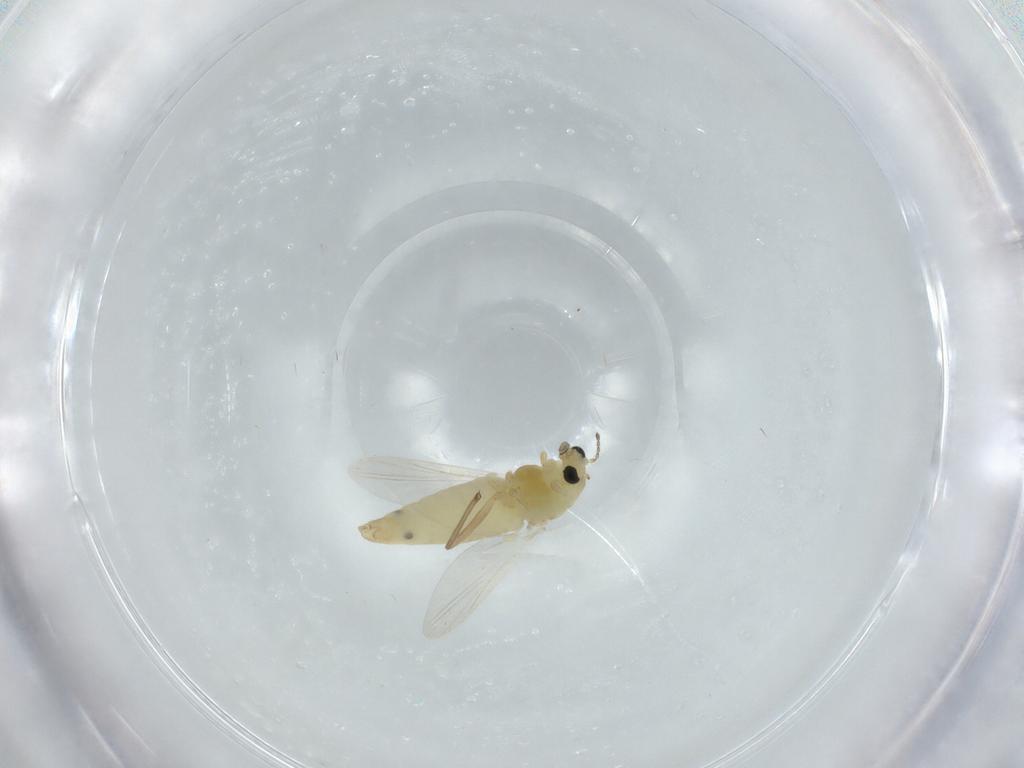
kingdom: Animalia
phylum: Arthropoda
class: Insecta
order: Diptera
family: Chironomidae
